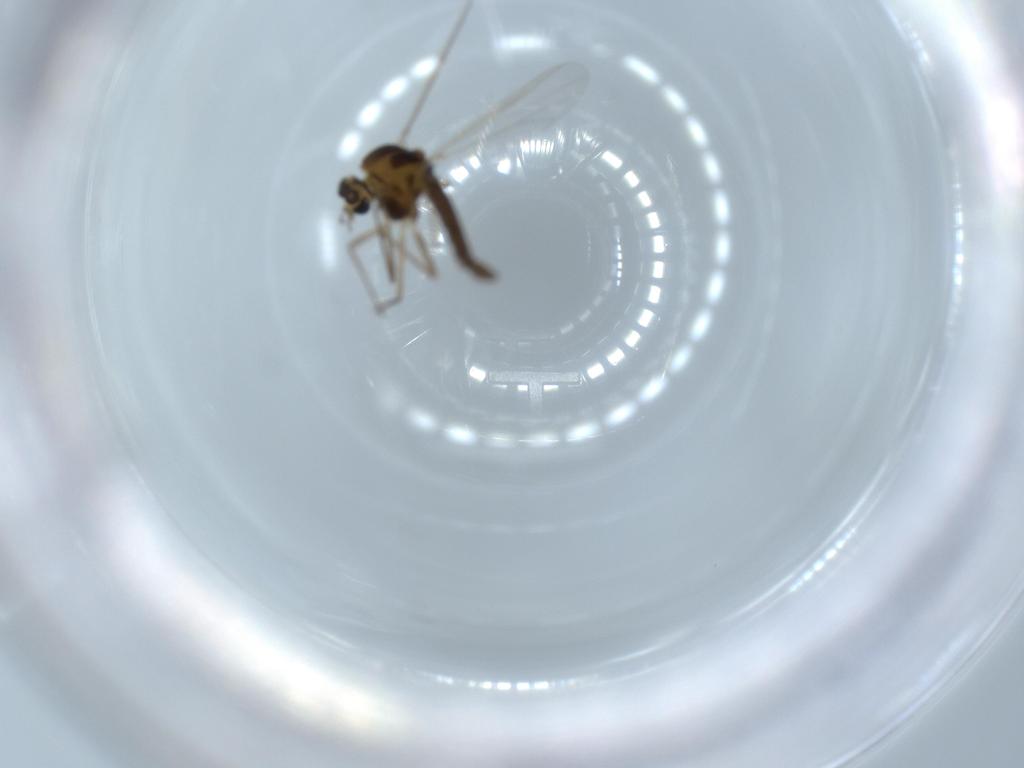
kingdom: Animalia
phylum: Arthropoda
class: Insecta
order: Diptera
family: Chironomidae
